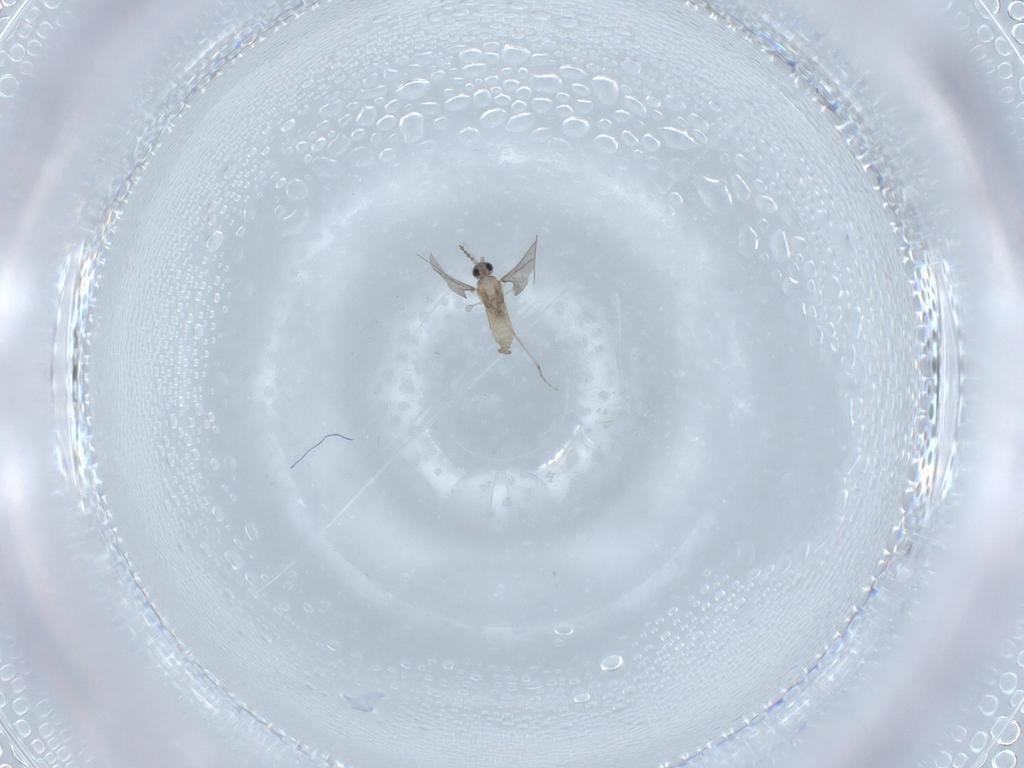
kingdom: Animalia
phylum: Arthropoda
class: Insecta
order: Diptera
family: Cecidomyiidae
